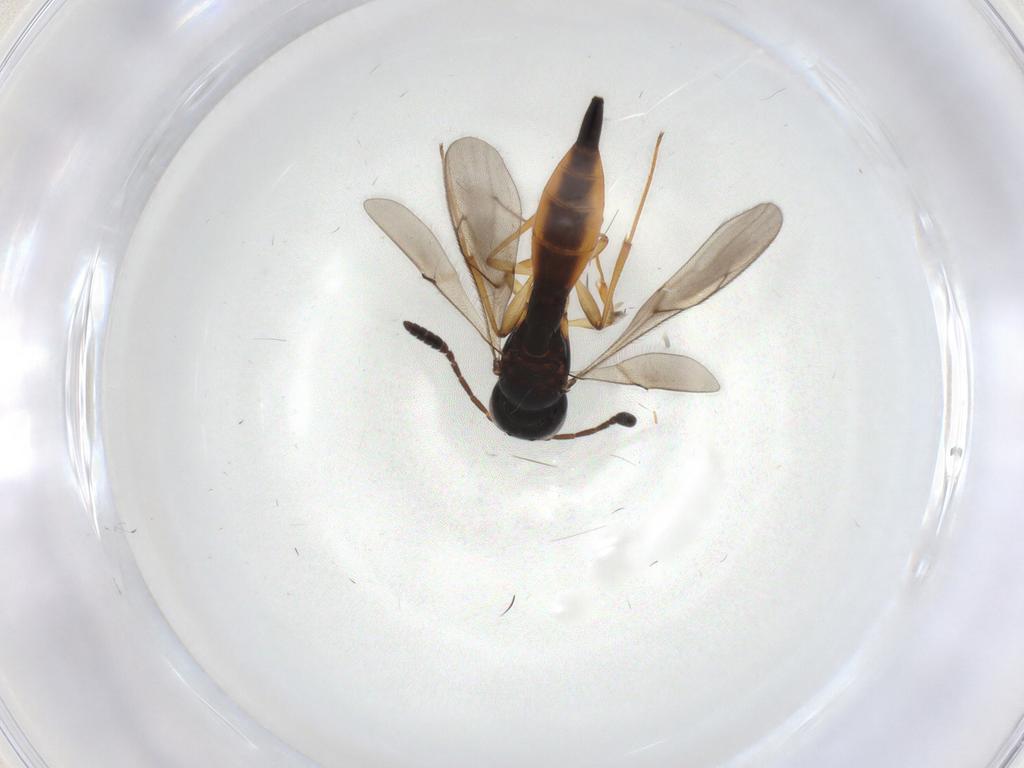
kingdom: Animalia
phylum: Arthropoda
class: Insecta
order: Hymenoptera
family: Scelionidae
